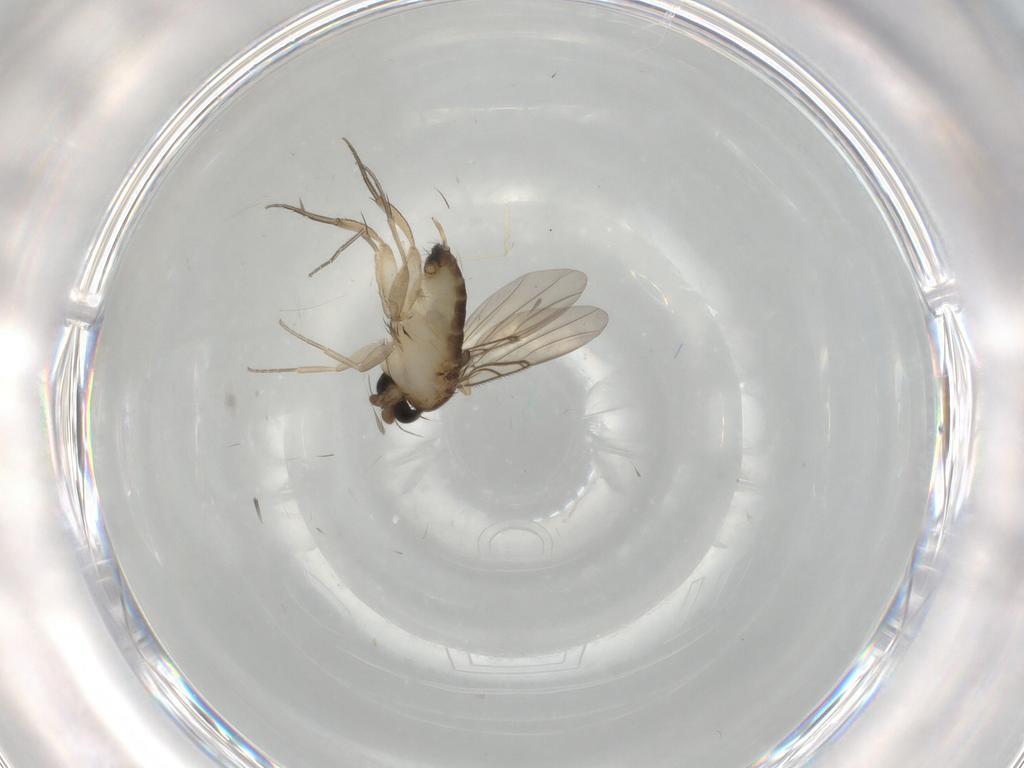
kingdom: Animalia
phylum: Arthropoda
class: Insecta
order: Diptera
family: Cecidomyiidae
